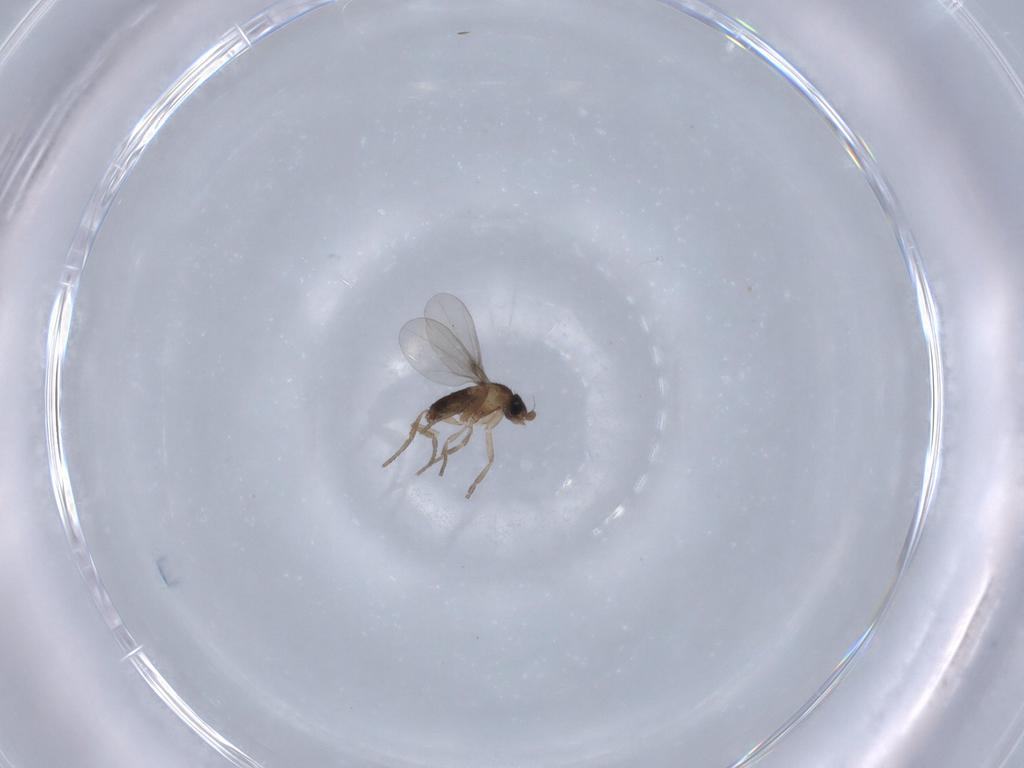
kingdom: Animalia
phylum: Arthropoda
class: Insecta
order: Diptera
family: Phoridae
